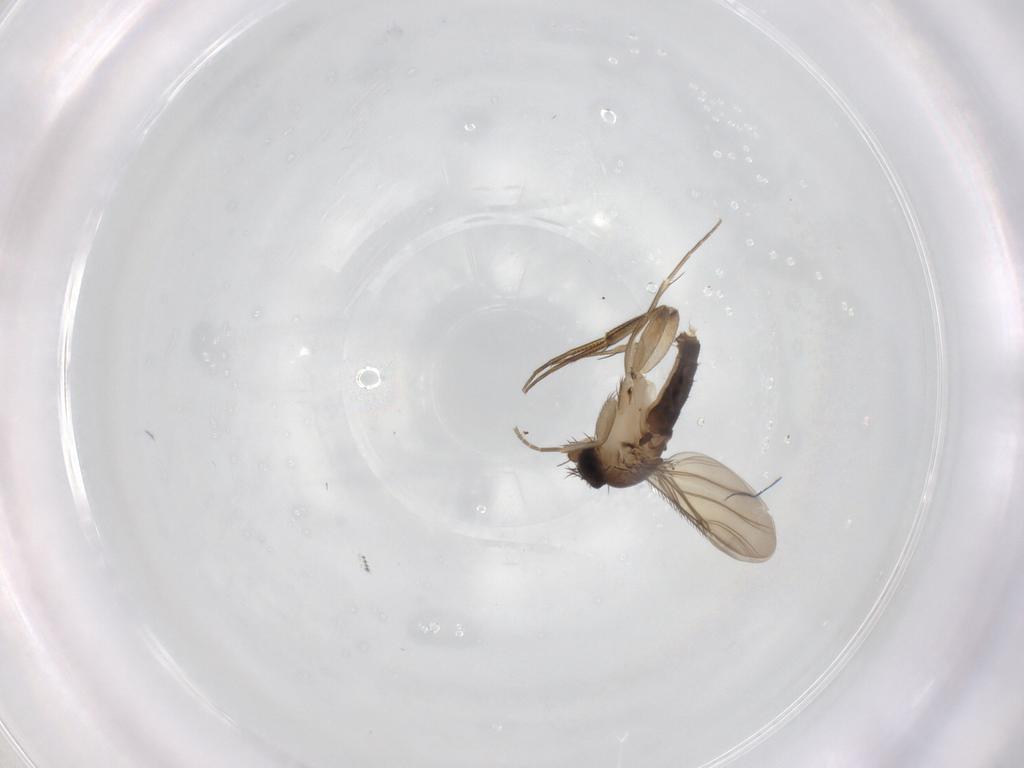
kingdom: Animalia
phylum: Arthropoda
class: Insecta
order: Diptera
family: Phoridae
